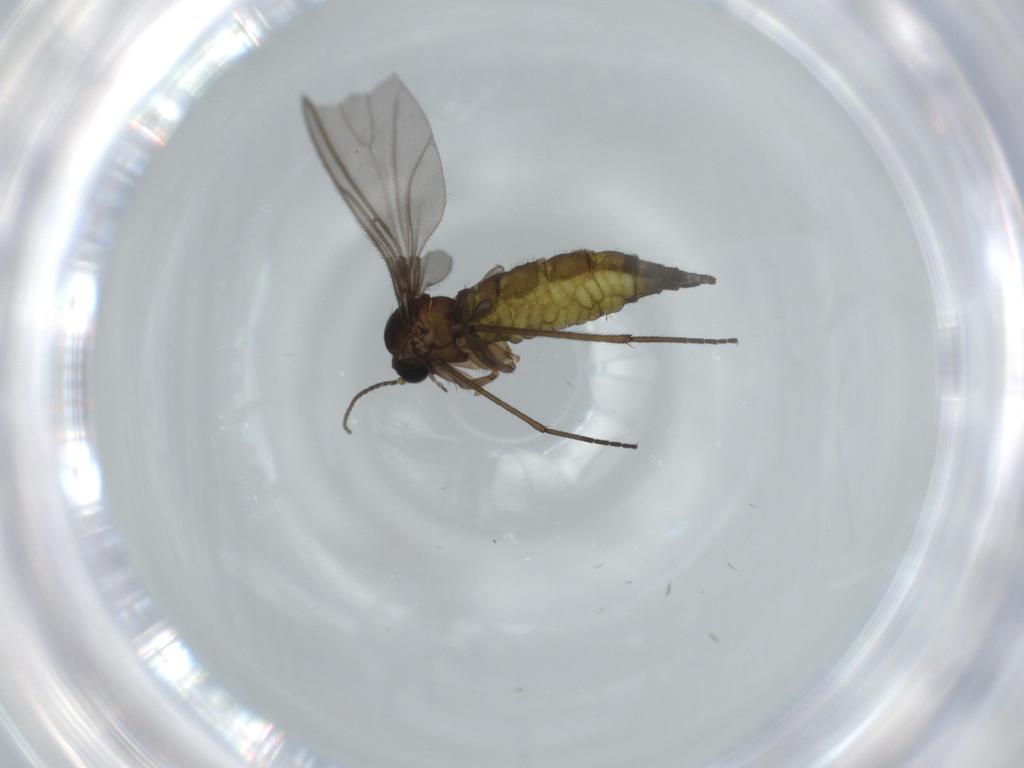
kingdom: Animalia
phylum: Arthropoda
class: Insecta
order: Diptera
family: Sciaridae
